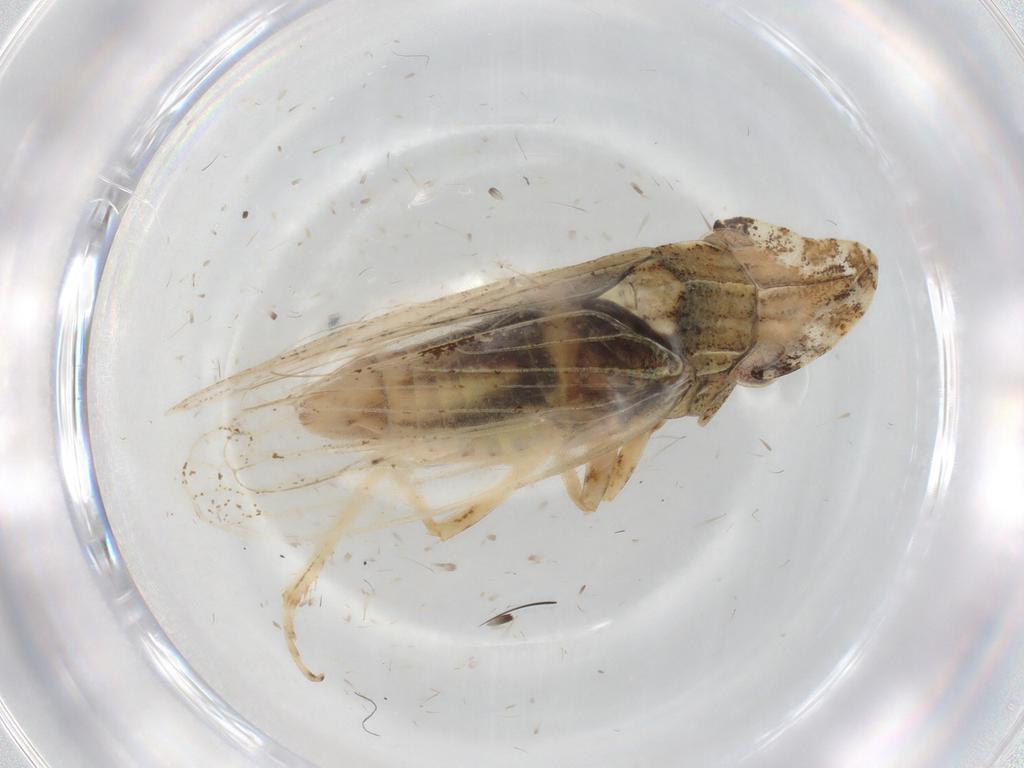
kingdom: Animalia
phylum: Arthropoda
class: Insecta
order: Hemiptera
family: Cicadellidae
